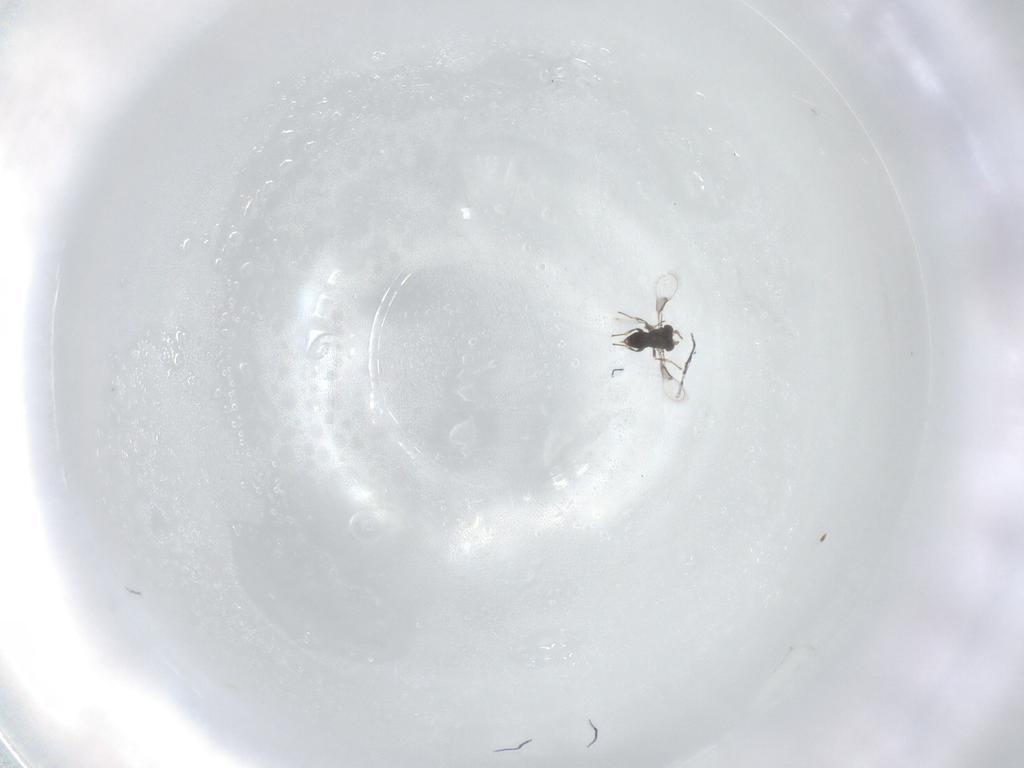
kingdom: Animalia
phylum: Arthropoda
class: Insecta
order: Hymenoptera
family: Trichogrammatidae
